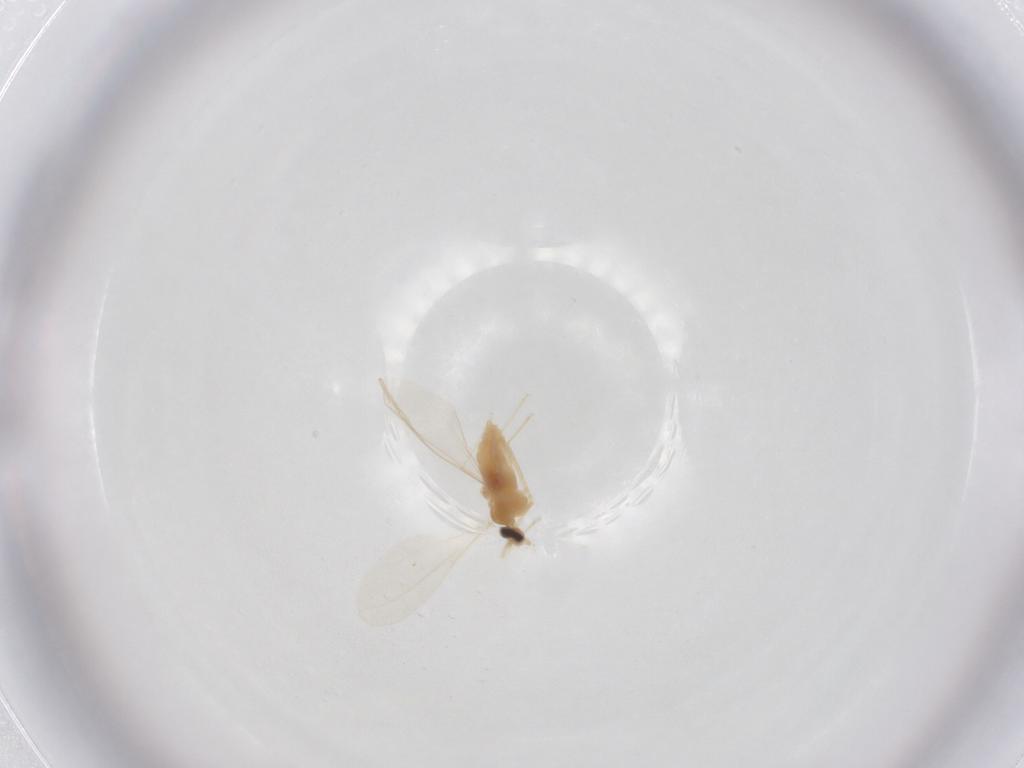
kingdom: Animalia
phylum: Arthropoda
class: Insecta
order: Diptera
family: Cecidomyiidae
